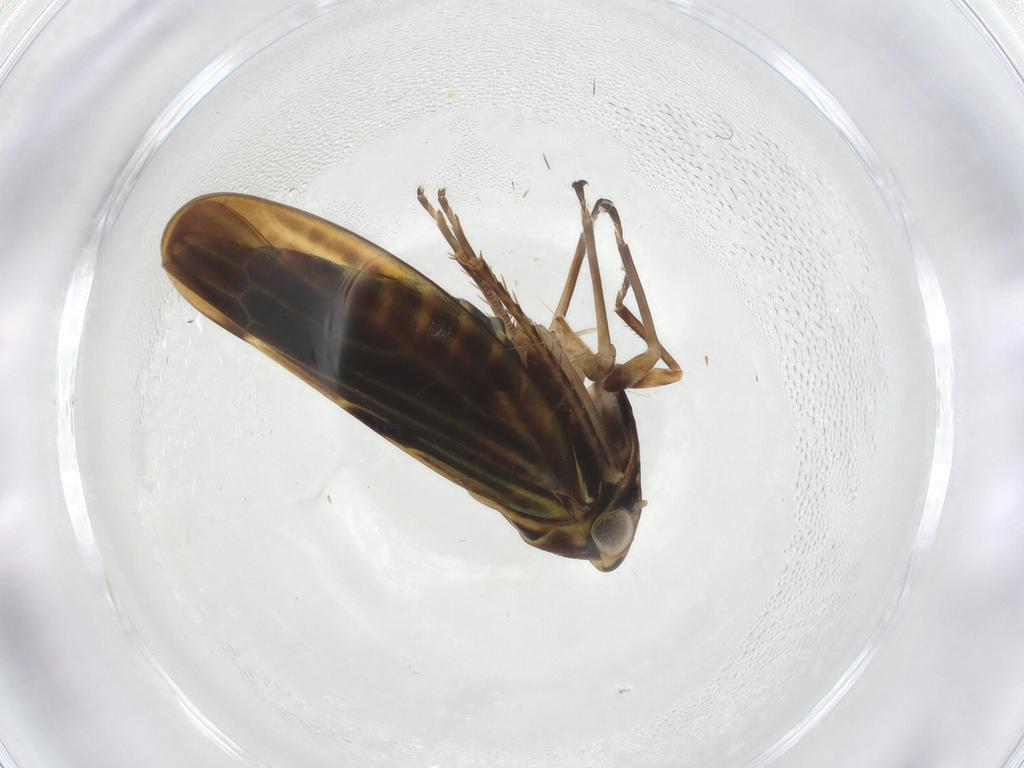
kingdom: Animalia
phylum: Arthropoda
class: Insecta
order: Hemiptera
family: Cicadellidae
